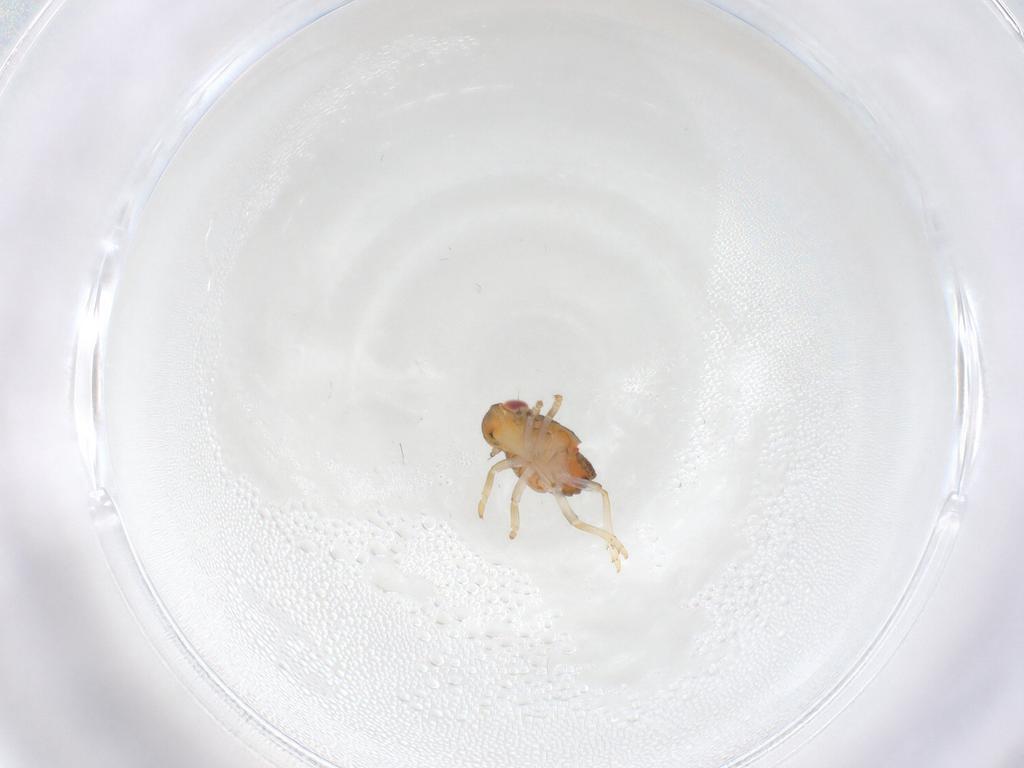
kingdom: Animalia
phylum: Arthropoda
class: Insecta
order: Hemiptera
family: Issidae
